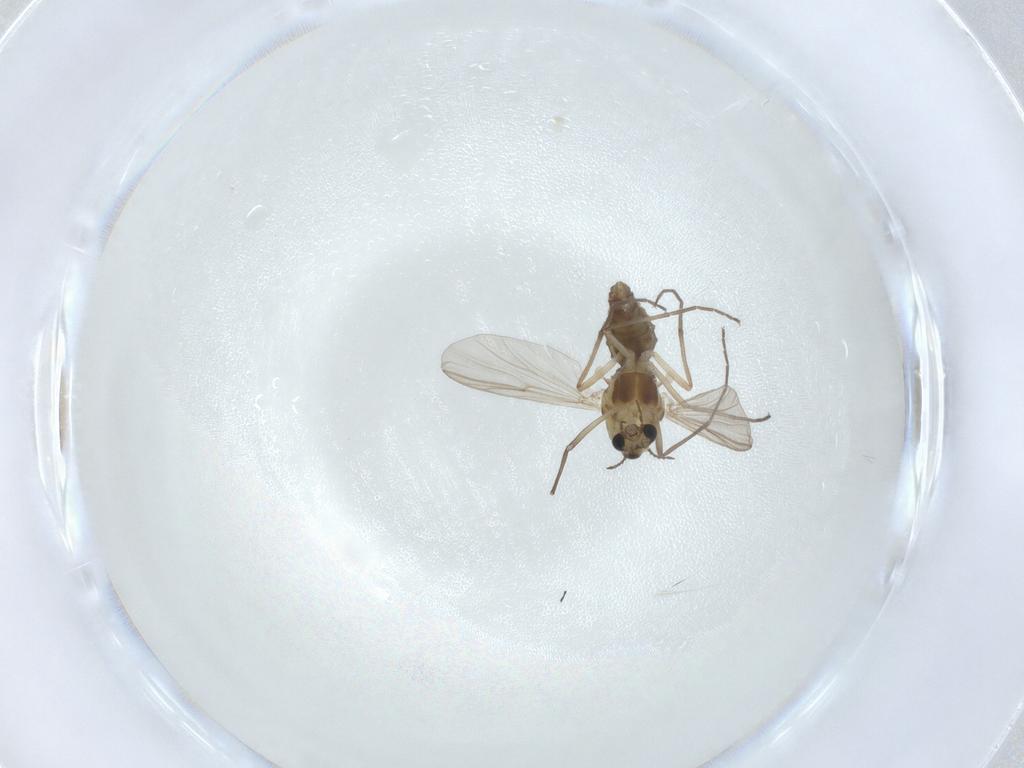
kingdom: Animalia
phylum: Arthropoda
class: Insecta
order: Diptera
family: Chironomidae
